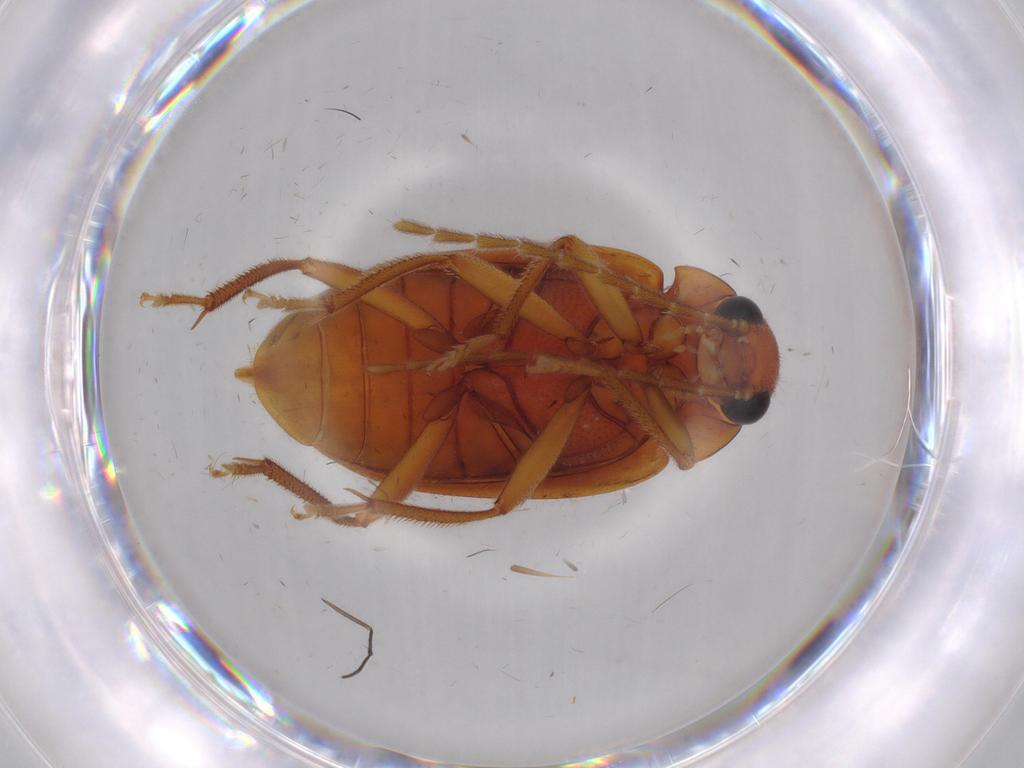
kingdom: Animalia
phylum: Arthropoda
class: Insecta
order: Coleoptera
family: Ptilodactylidae
